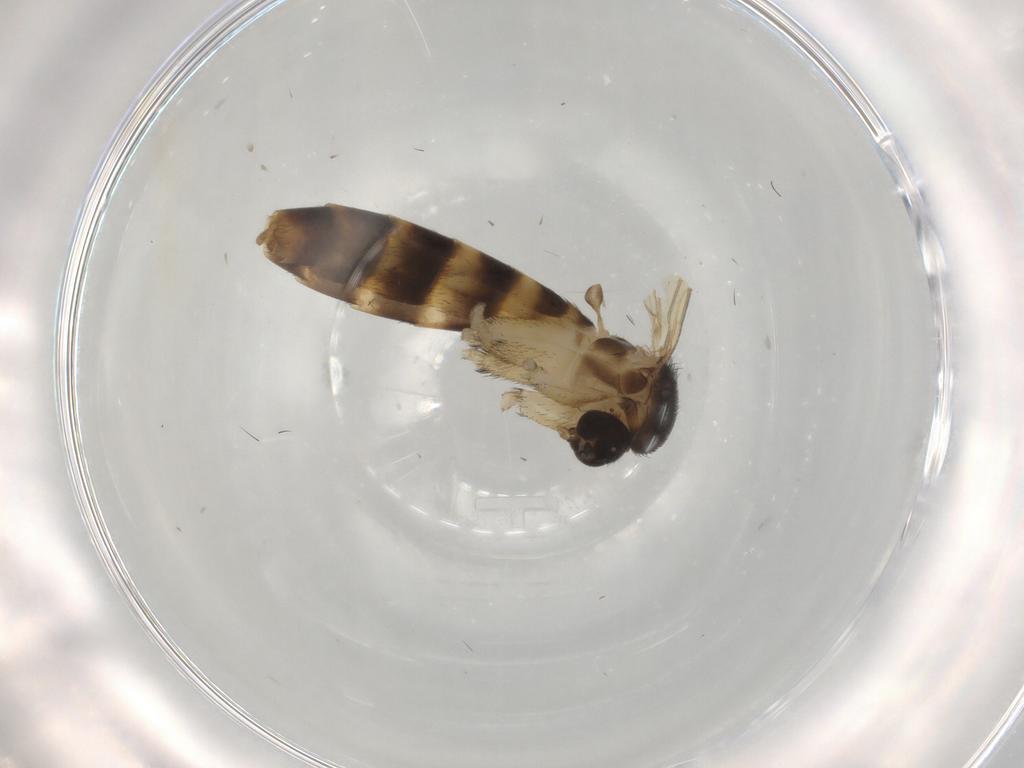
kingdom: Animalia
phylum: Arthropoda
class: Insecta
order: Diptera
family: Keroplatidae
